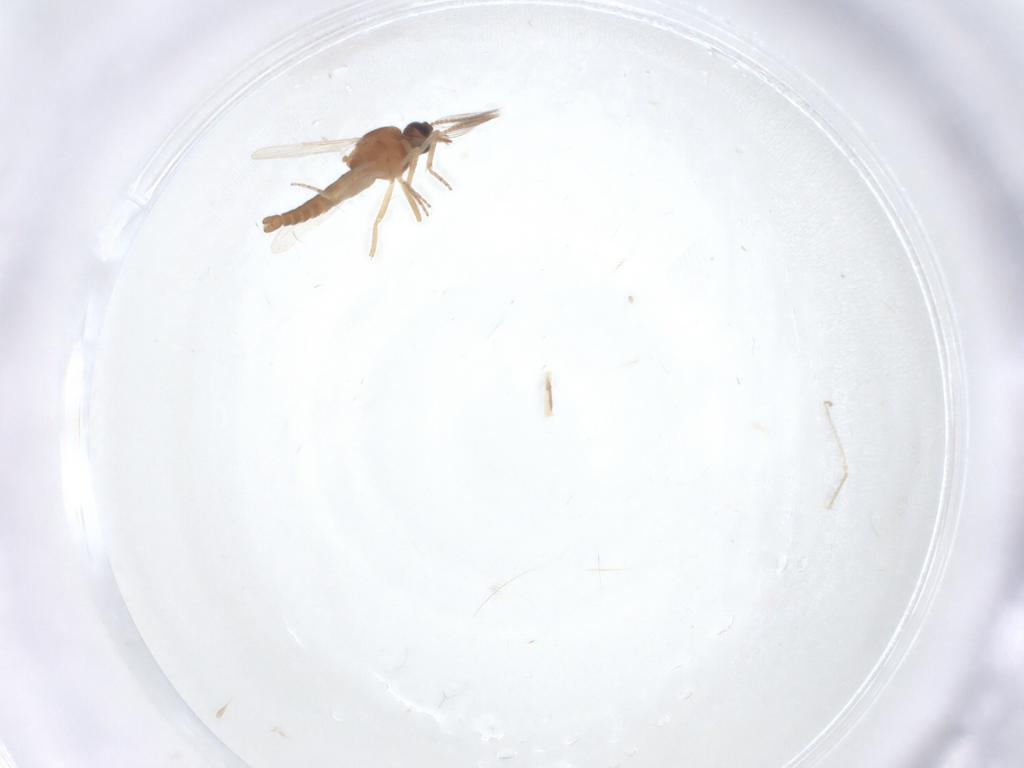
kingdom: Animalia
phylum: Arthropoda
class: Insecta
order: Diptera
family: Ceratopogonidae
